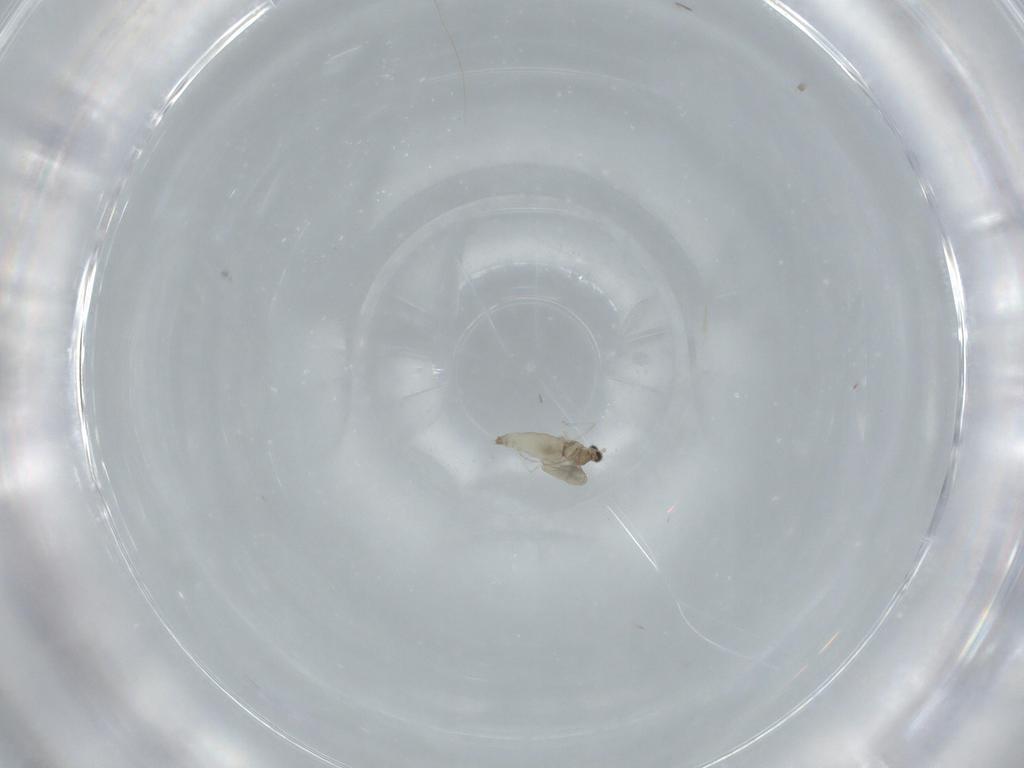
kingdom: Animalia
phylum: Arthropoda
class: Insecta
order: Diptera
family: Cecidomyiidae
